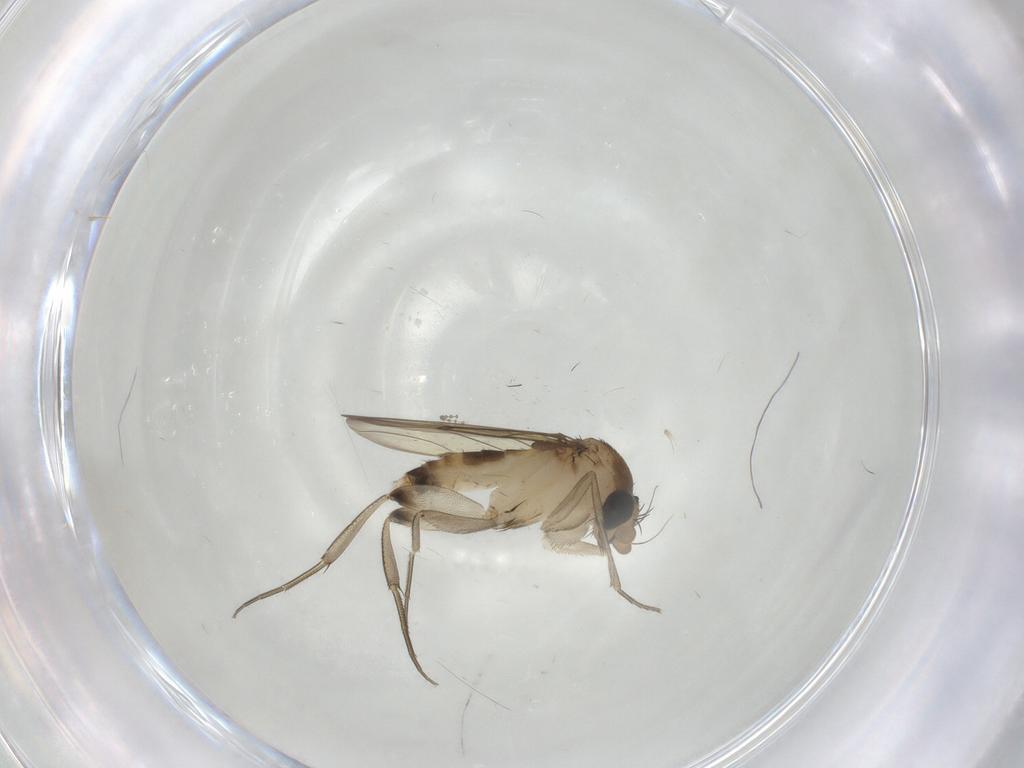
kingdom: Animalia
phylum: Arthropoda
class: Insecta
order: Diptera
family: Phoridae
